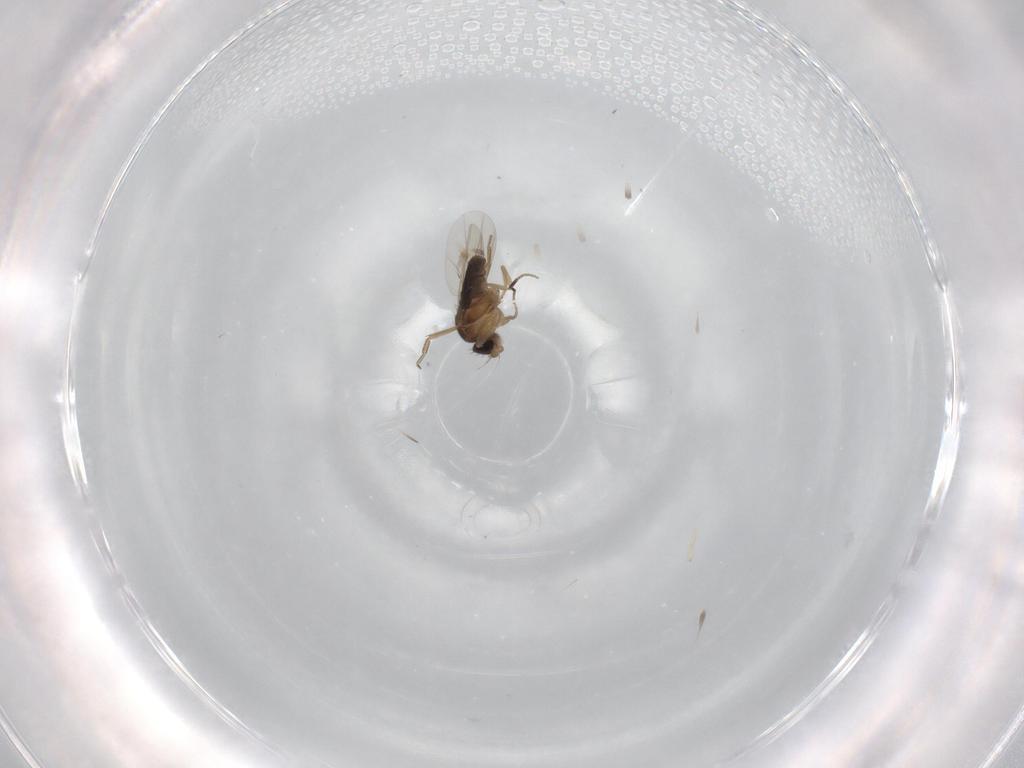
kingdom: Animalia
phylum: Arthropoda
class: Insecta
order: Diptera
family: Phoridae
